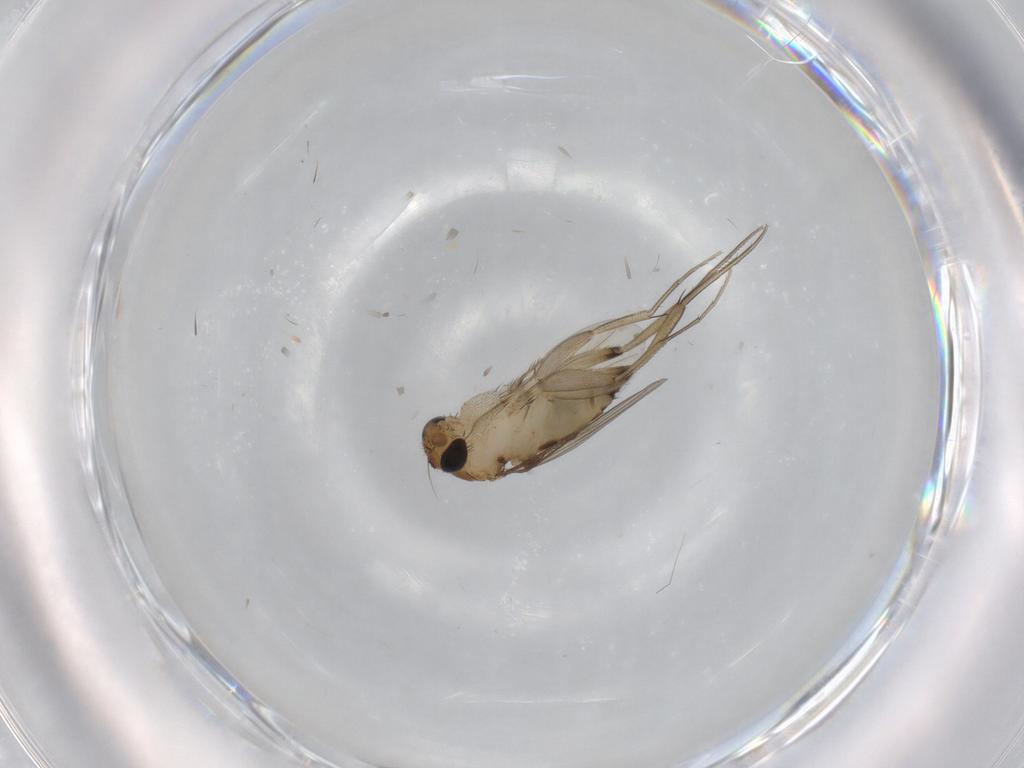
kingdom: Animalia
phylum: Arthropoda
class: Insecta
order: Diptera
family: Phoridae
